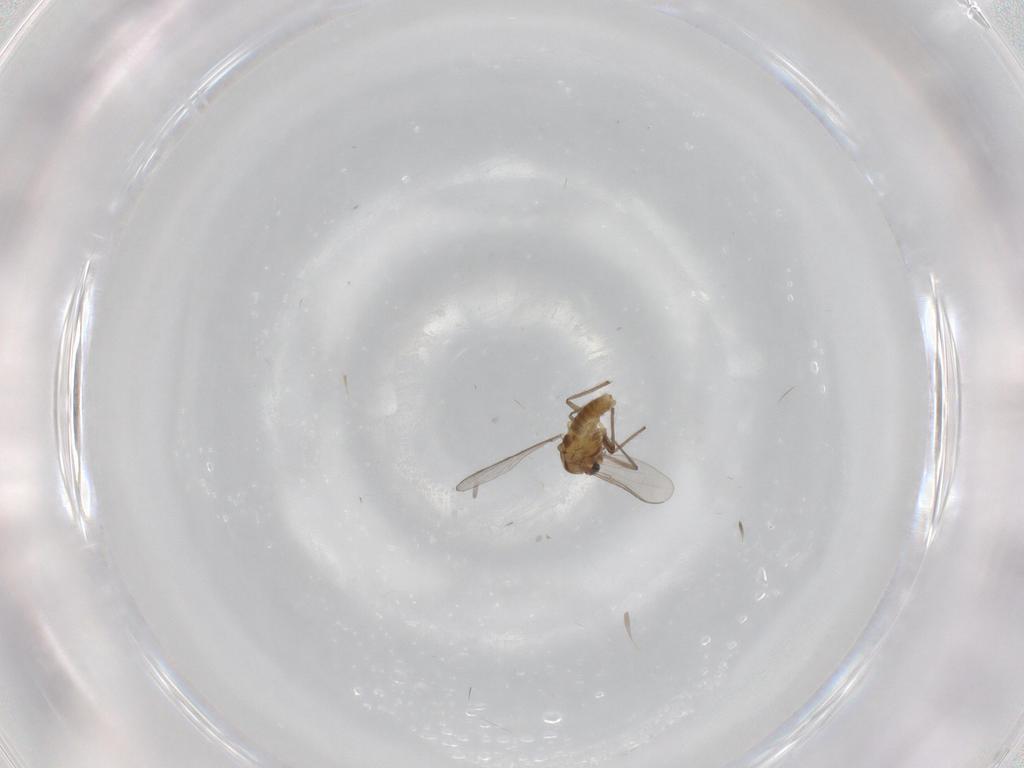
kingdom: Animalia
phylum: Arthropoda
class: Insecta
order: Diptera
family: Chironomidae
